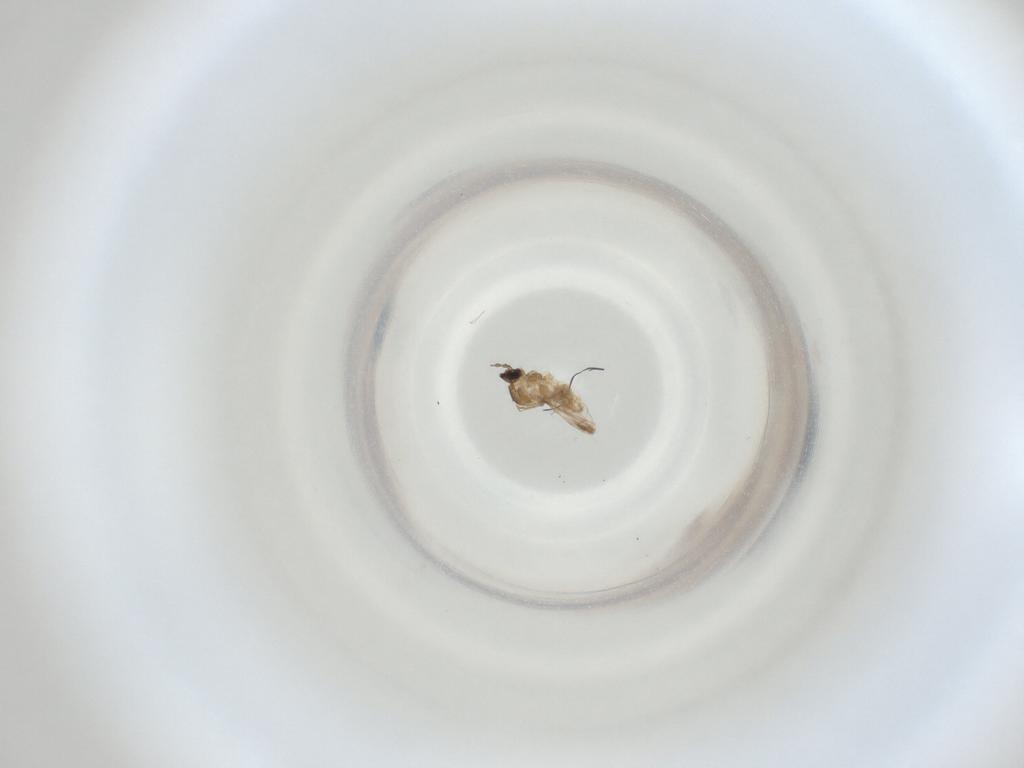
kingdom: Animalia
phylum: Arthropoda
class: Insecta
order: Diptera
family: Cecidomyiidae
